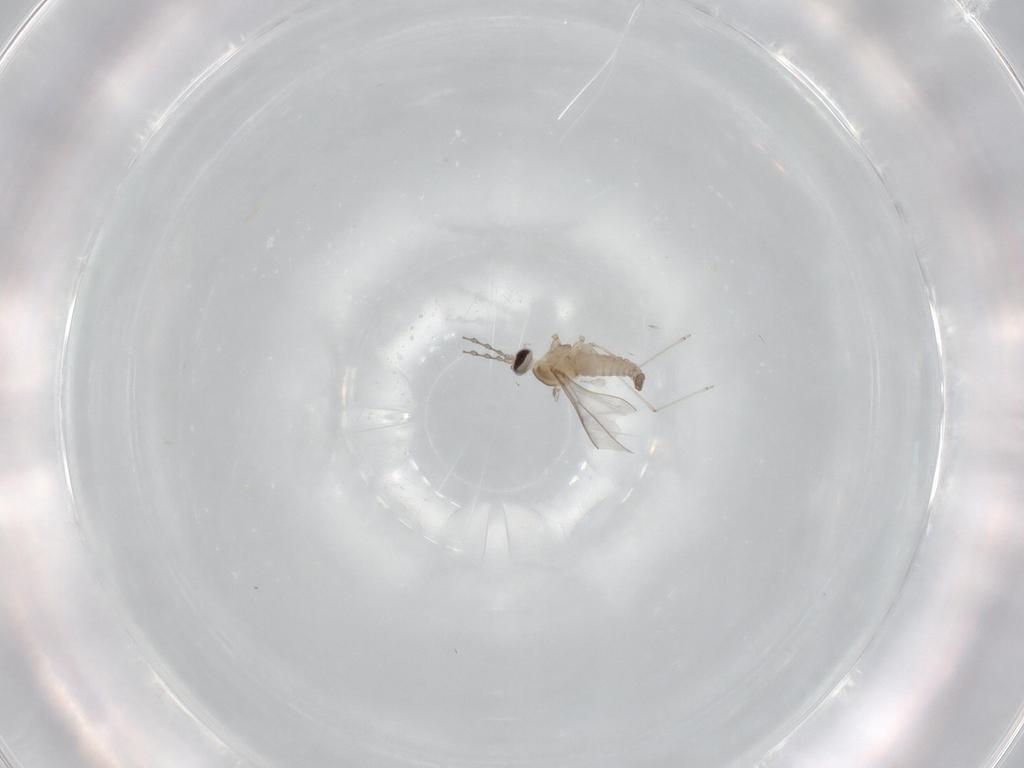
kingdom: Animalia
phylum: Arthropoda
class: Insecta
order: Diptera
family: Cecidomyiidae
